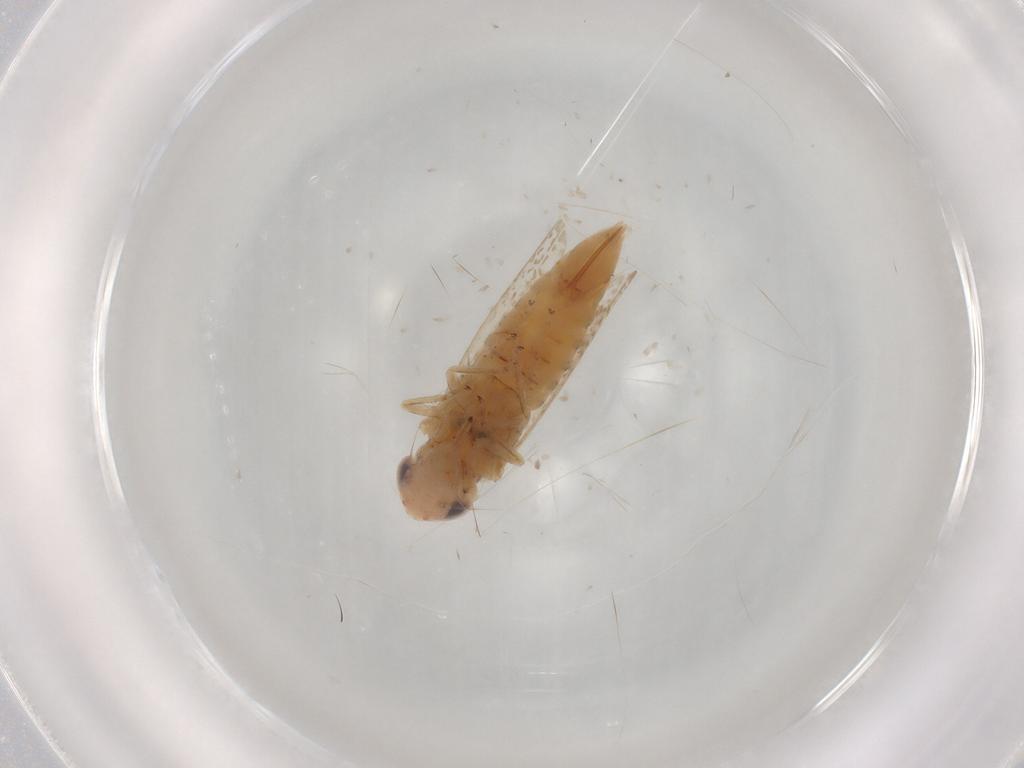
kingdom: Animalia
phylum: Arthropoda
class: Insecta
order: Hemiptera
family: Cicadellidae
